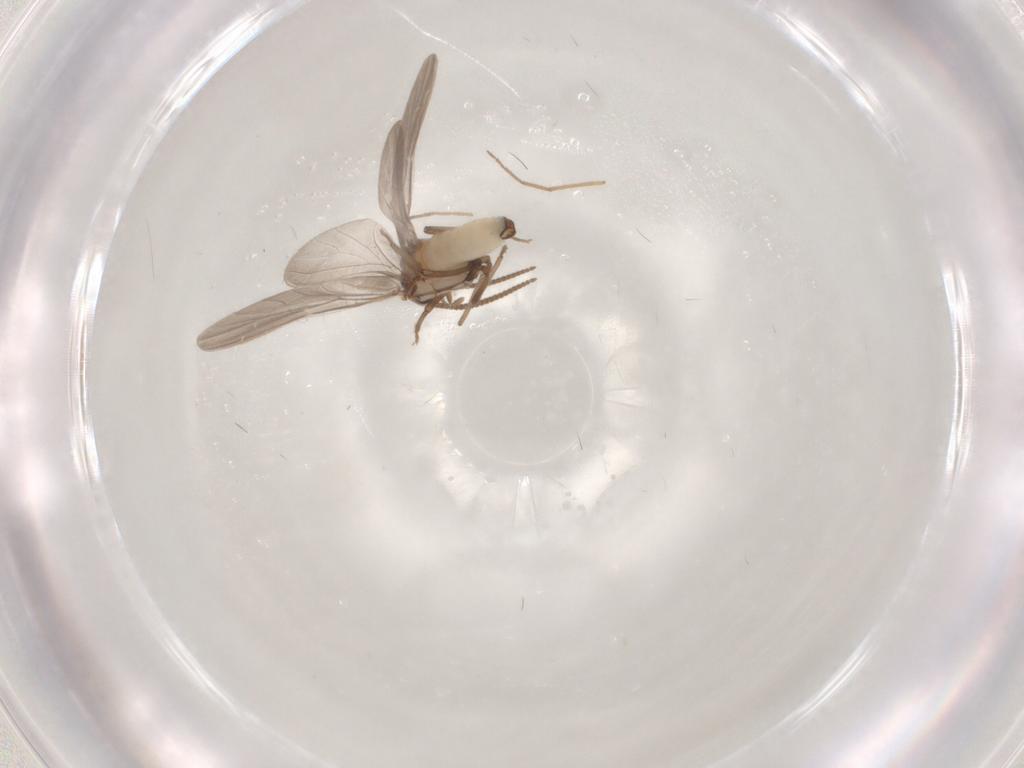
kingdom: Animalia
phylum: Arthropoda
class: Insecta
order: Neuroptera
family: Coniopterygidae
